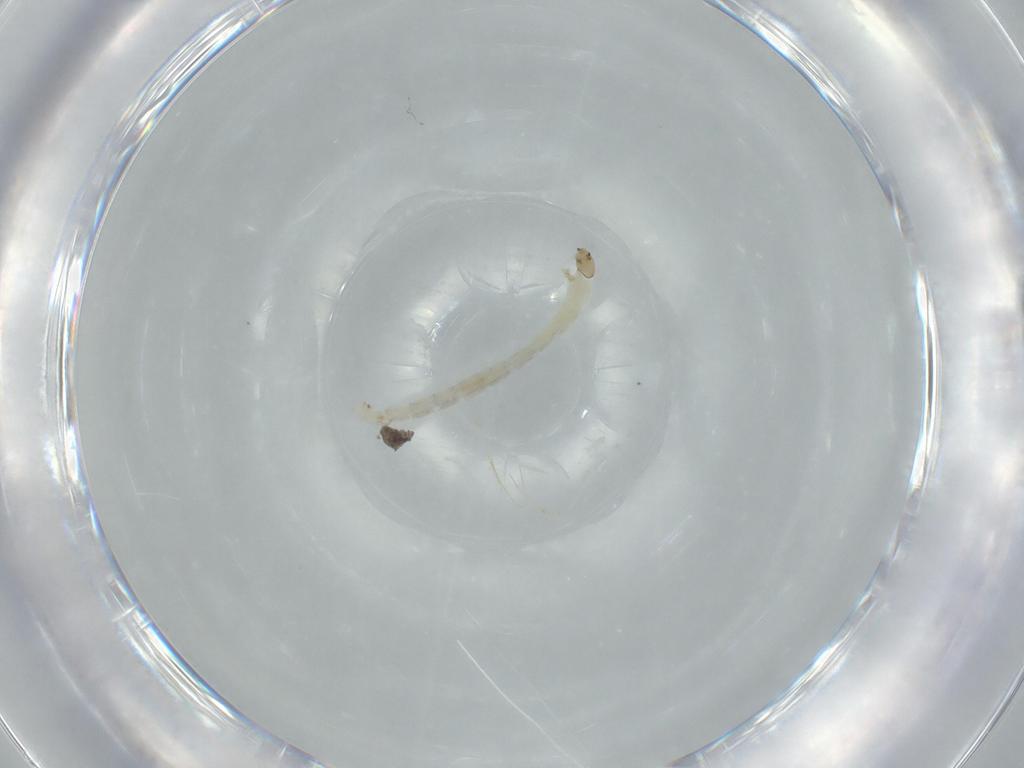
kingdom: Animalia
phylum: Arthropoda
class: Insecta
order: Diptera
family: Chironomidae
